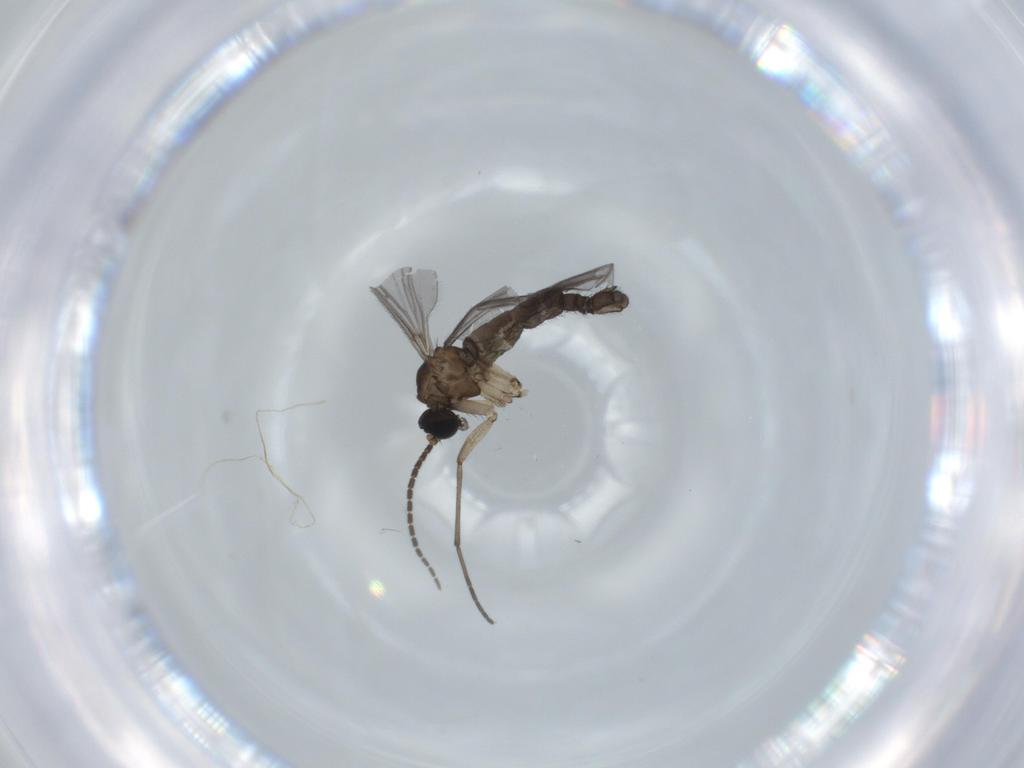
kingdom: Animalia
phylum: Arthropoda
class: Insecta
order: Diptera
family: Sciaridae
